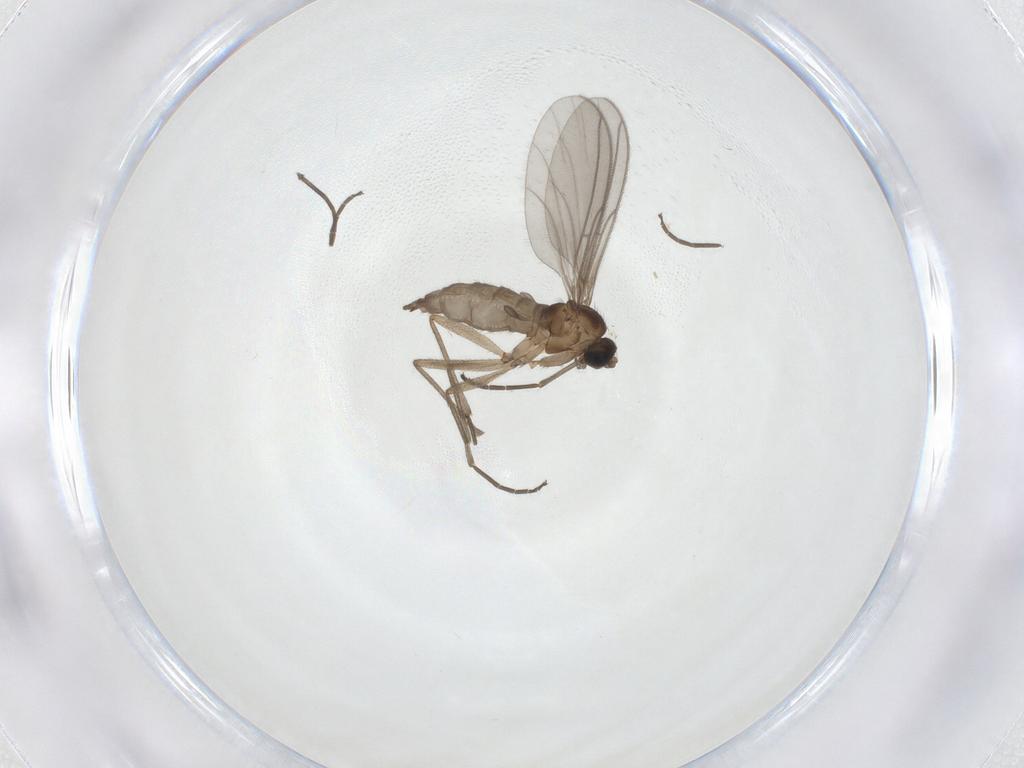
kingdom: Animalia
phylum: Arthropoda
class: Insecta
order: Diptera
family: Sciaridae
